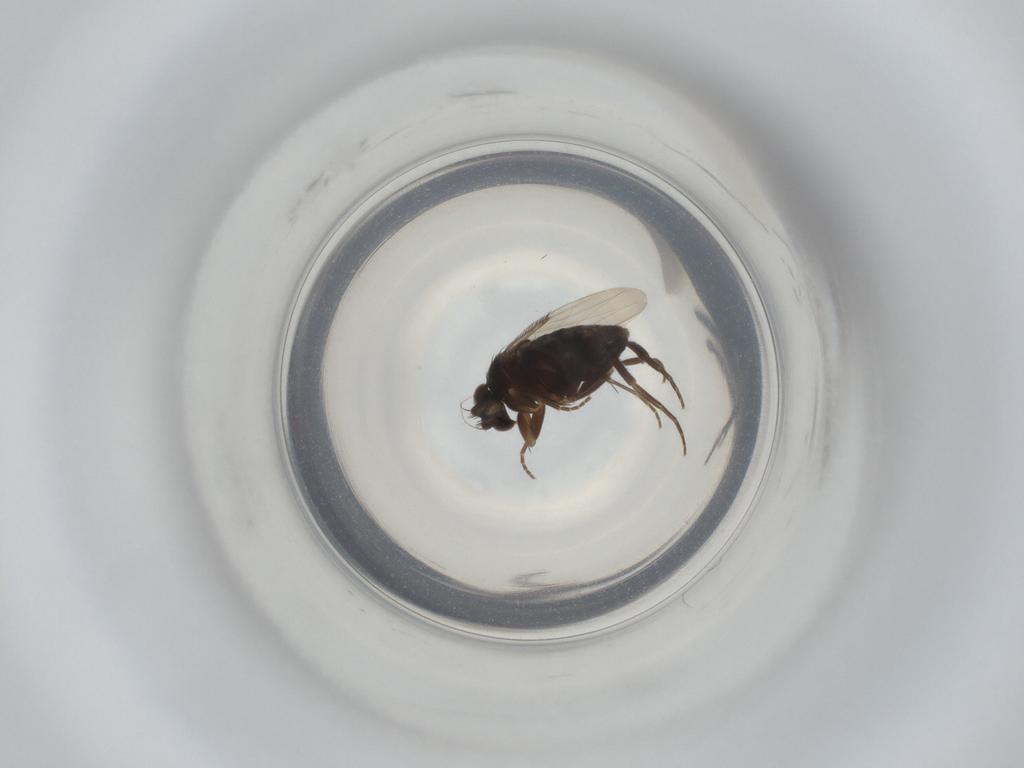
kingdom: Animalia
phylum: Arthropoda
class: Insecta
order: Diptera
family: Phoridae
